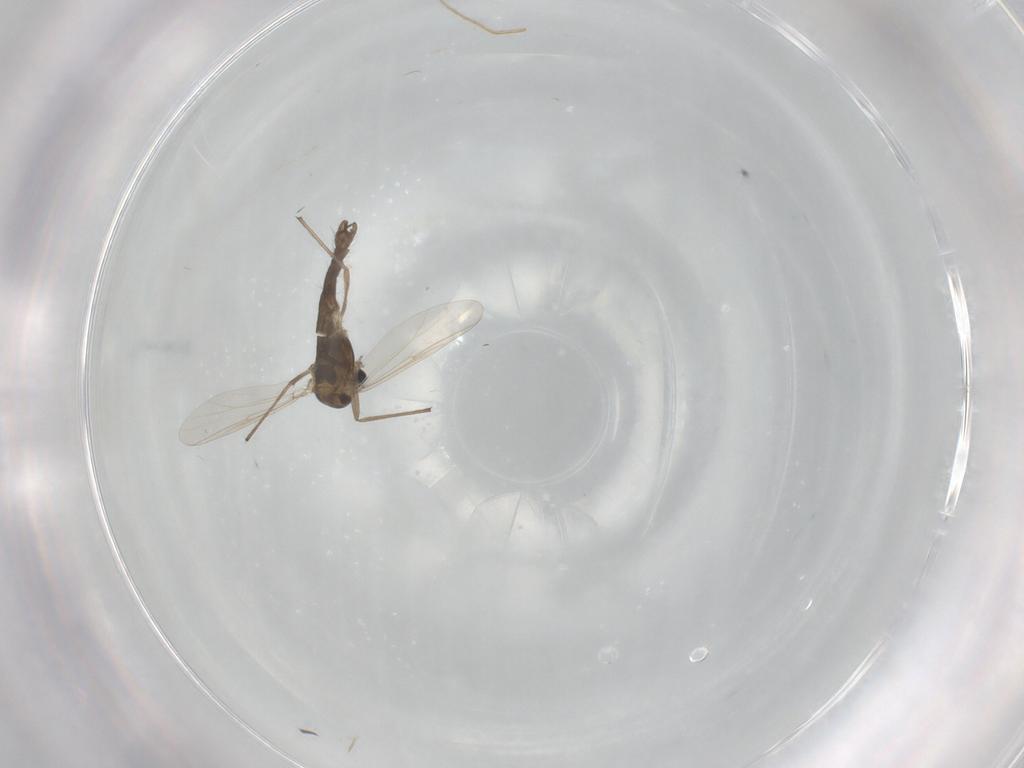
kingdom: Animalia
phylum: Arthropoda
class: Insecta
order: Diptera
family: Chironomidae
